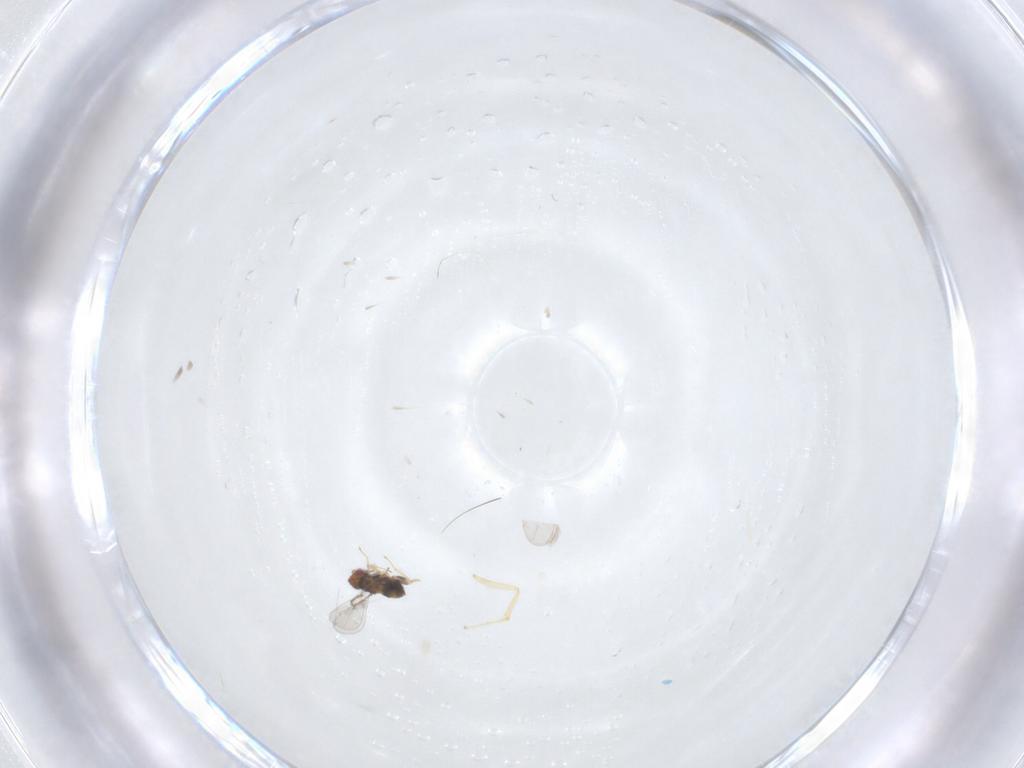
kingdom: Animalia
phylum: Arthropoda
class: Insecta
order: Hymenoptera
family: Formicidae
